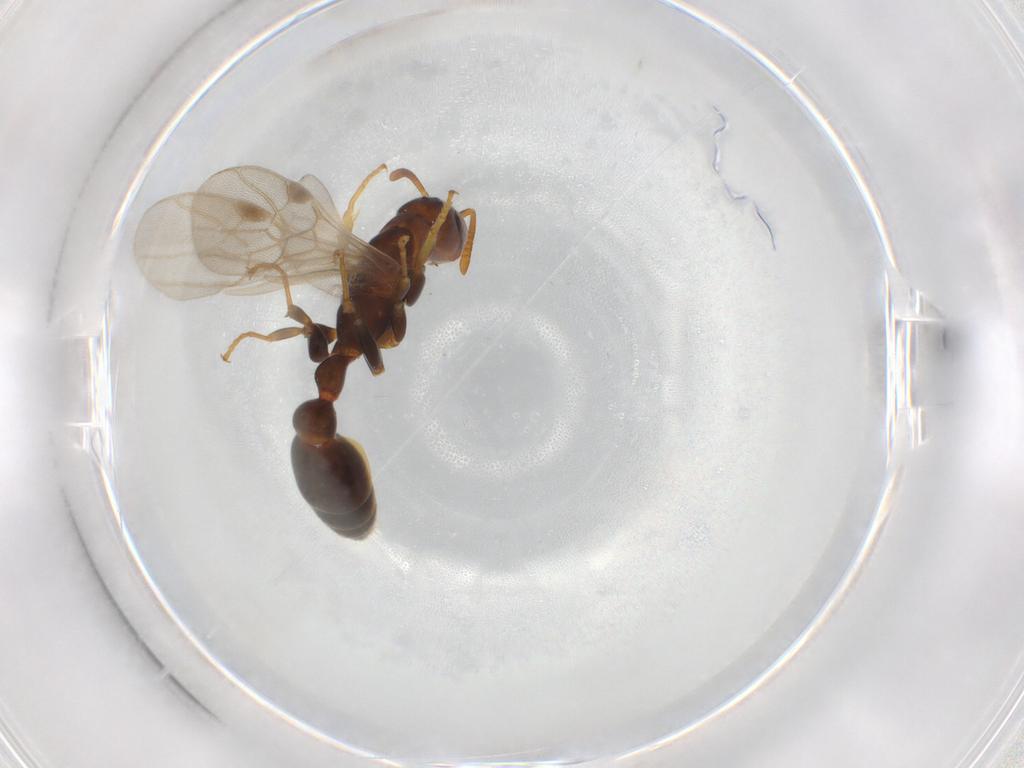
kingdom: Animalia
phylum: Arthropoda
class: Insecta
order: Hymenoptera
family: Formicidae
